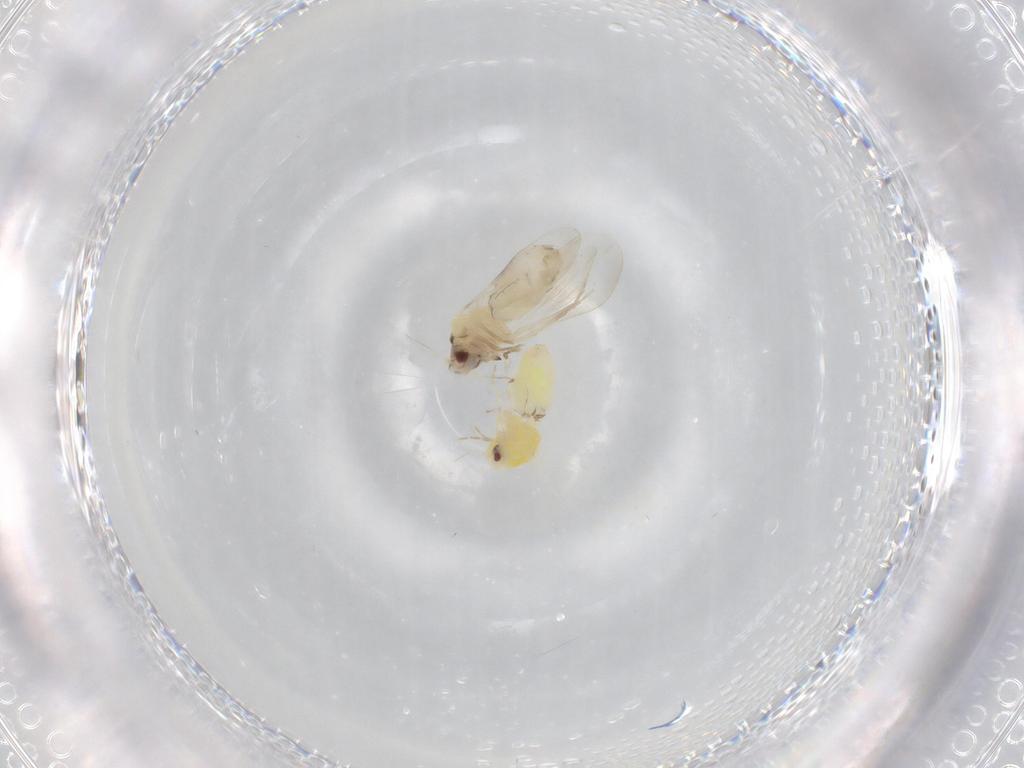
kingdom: Animalia
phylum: Arthropoda
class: Insecta
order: Hemiptera
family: Aleyrodidae
